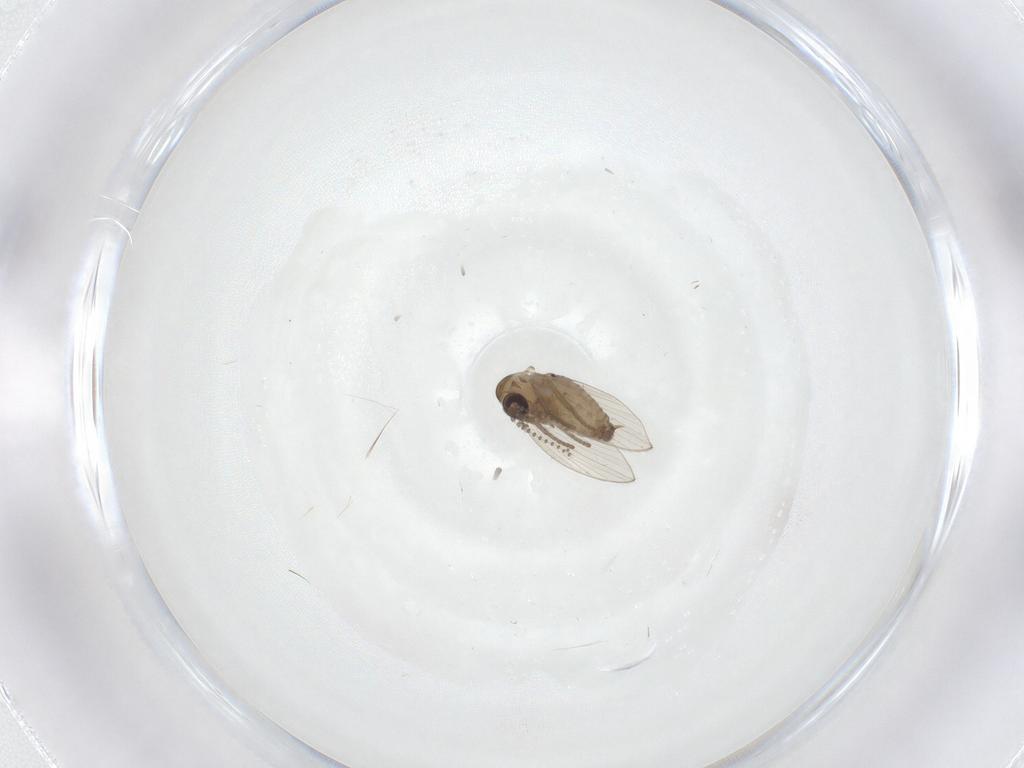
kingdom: Animalia
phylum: Arthropoda
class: Insecta
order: Diptera
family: Psychodidae
